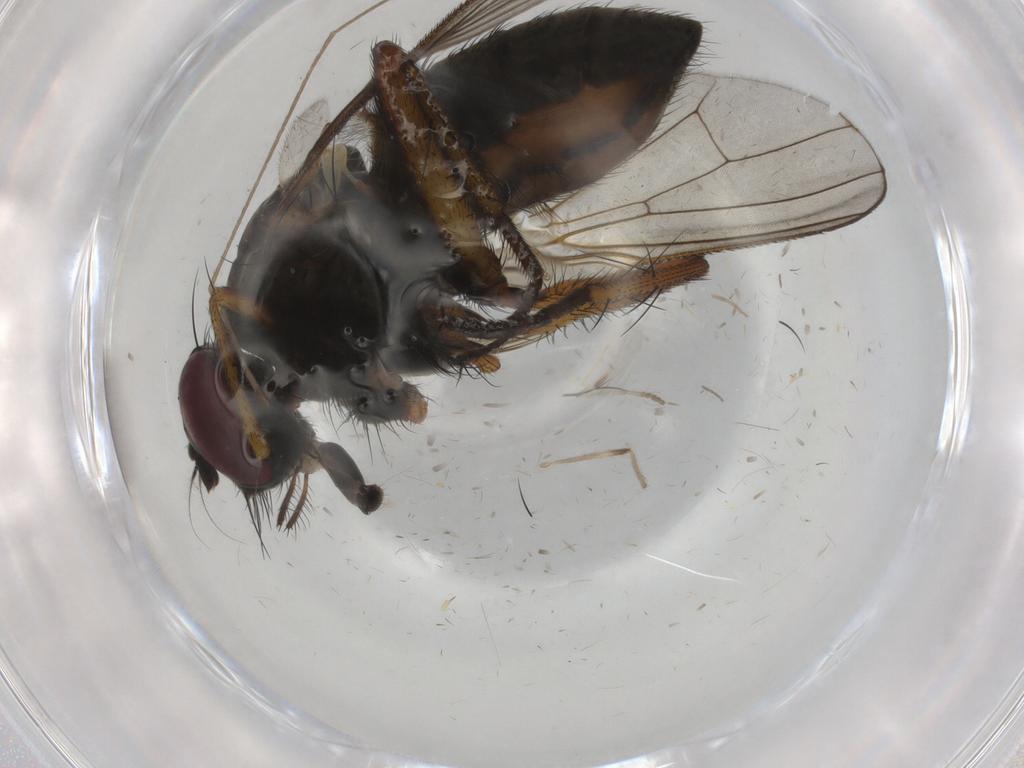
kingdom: Animalia
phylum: Arthropoda
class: Insecta
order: Diptera
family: Muscidae
